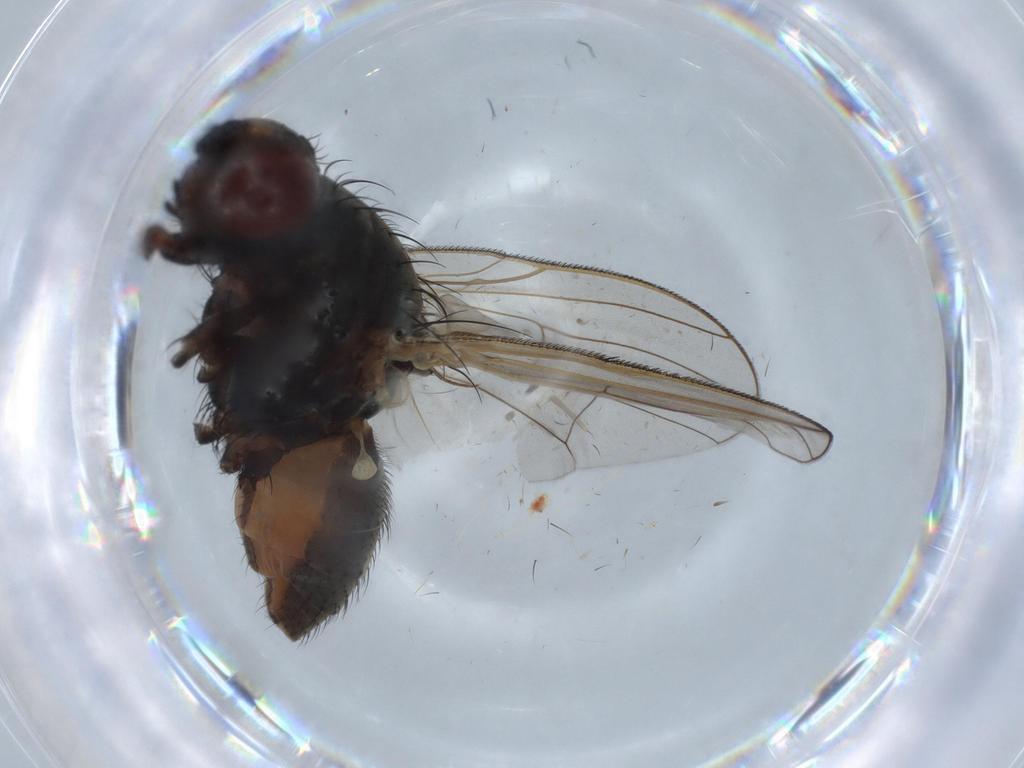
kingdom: Animalia
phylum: Arthropoda
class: Insecta
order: Diptera
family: Anthomyiidae
